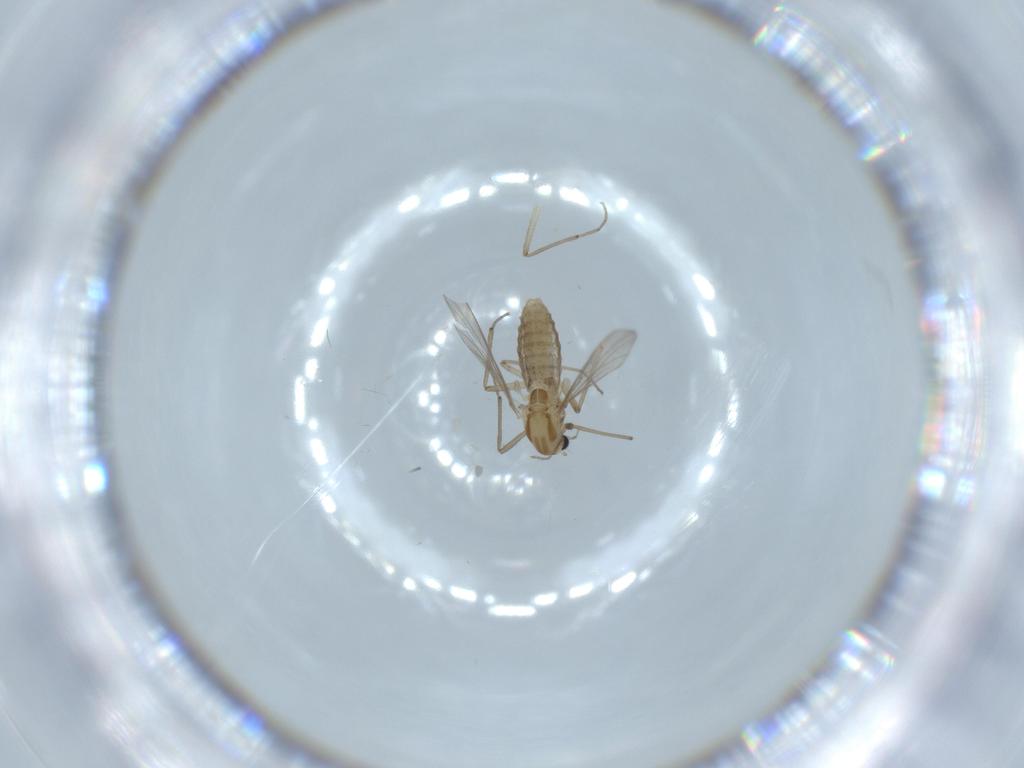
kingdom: Animalia
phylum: Arthropoda
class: Insecta
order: Diptera
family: Chironomidae
